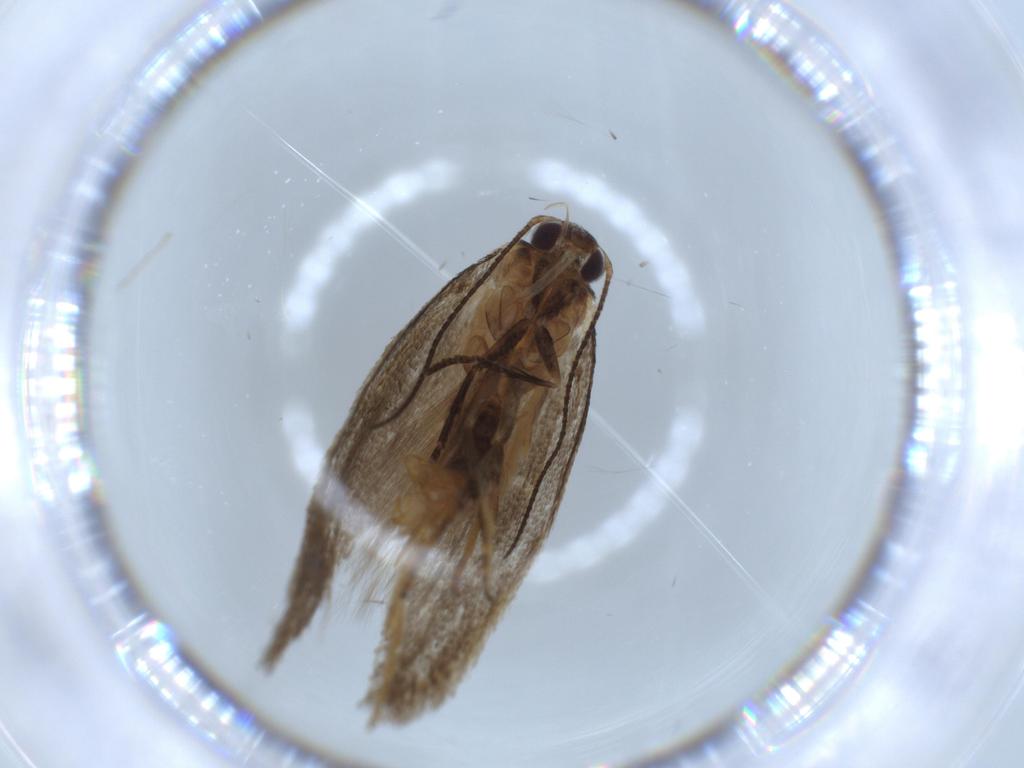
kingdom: Animalia
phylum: Arthropoda
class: Insecta
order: Lepidoptera
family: Oecophoridae
